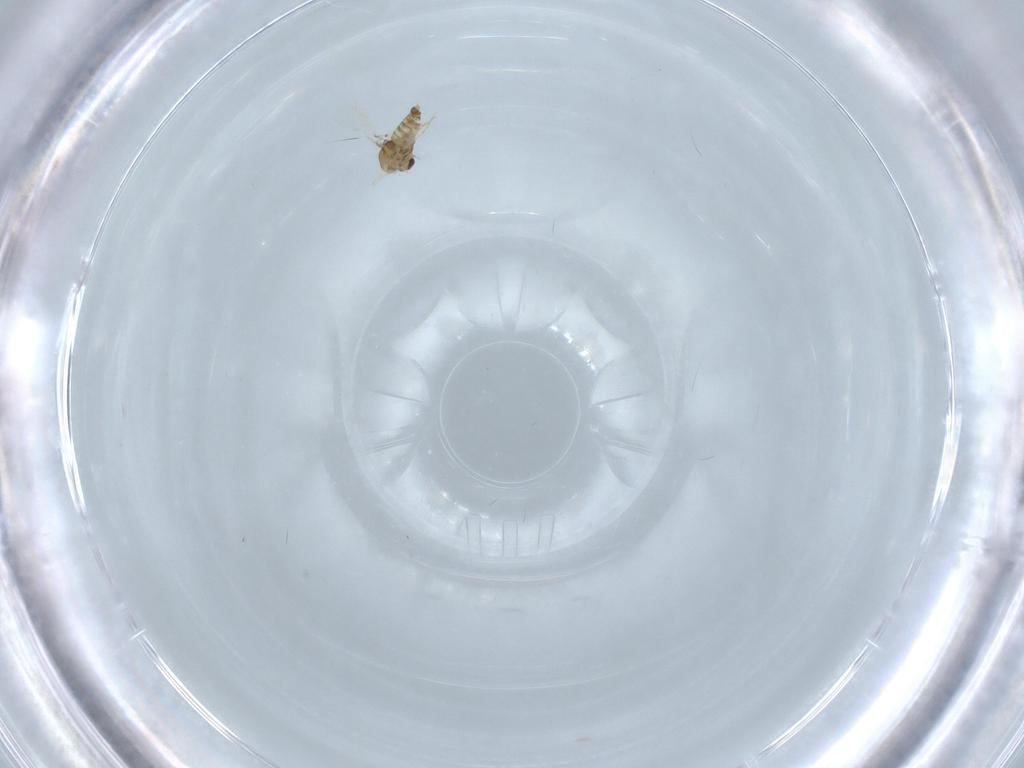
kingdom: Animalia
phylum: Arthropoda
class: Insecta
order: Diptera
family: Chironomidae
